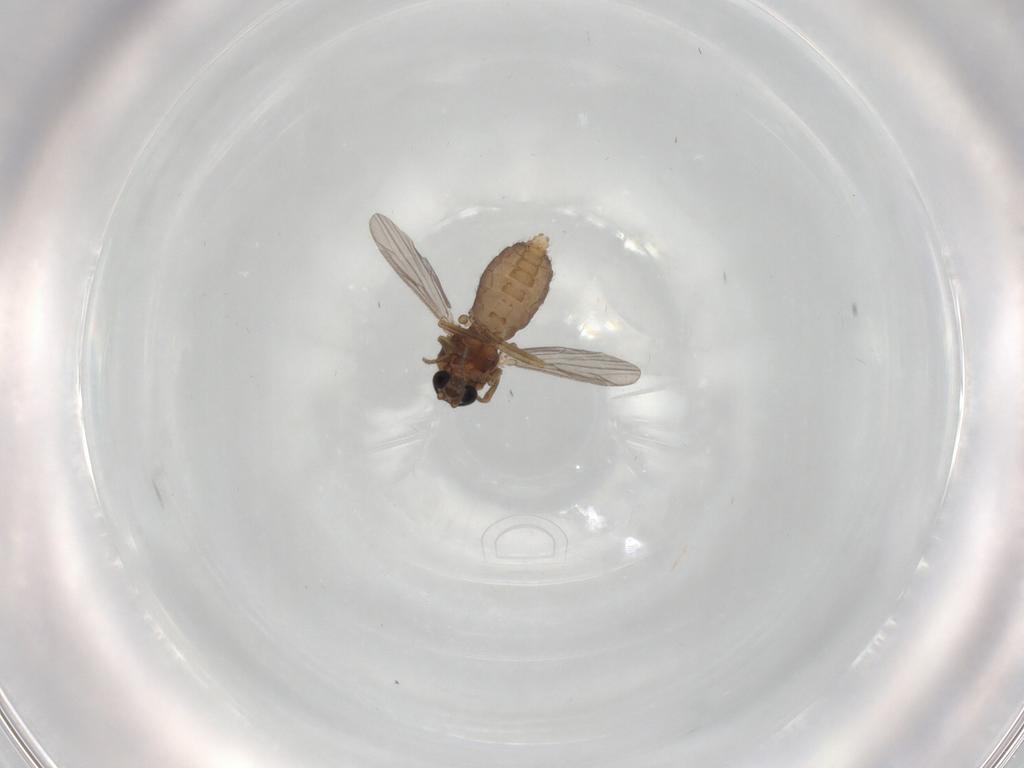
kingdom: Animalia
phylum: Arthropoda
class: Insecta
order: Diptera
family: Ceratopogonidae
